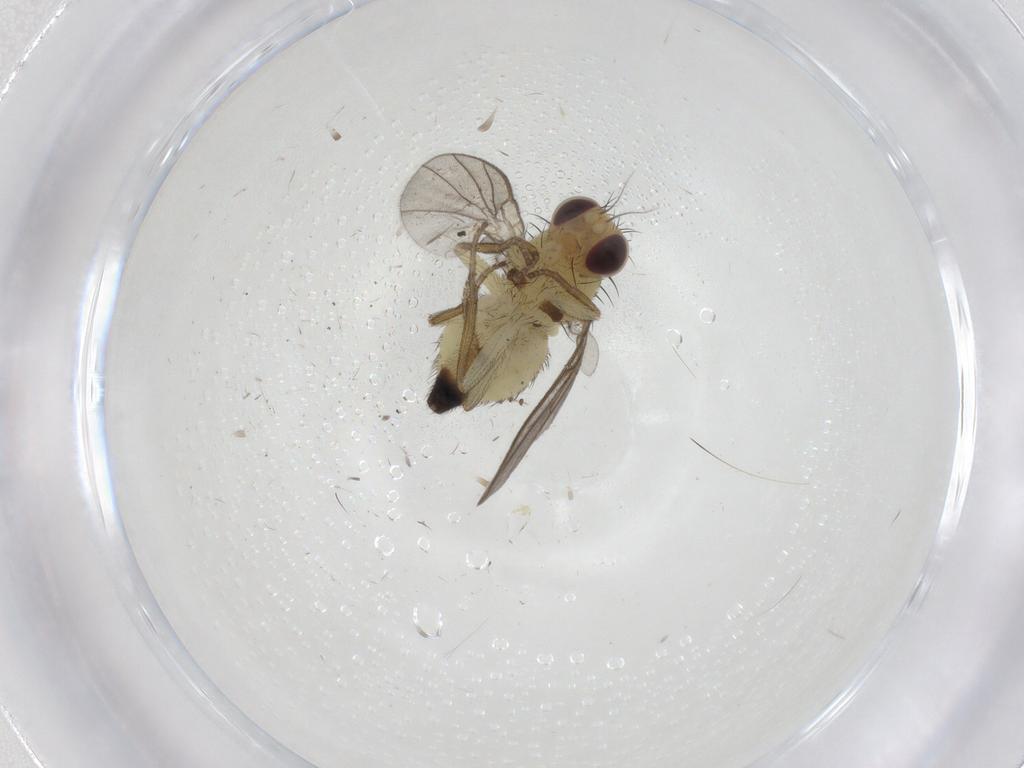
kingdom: Animalia
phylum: Arthropoda
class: Insecta
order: Diptera
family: Agromyzidae
